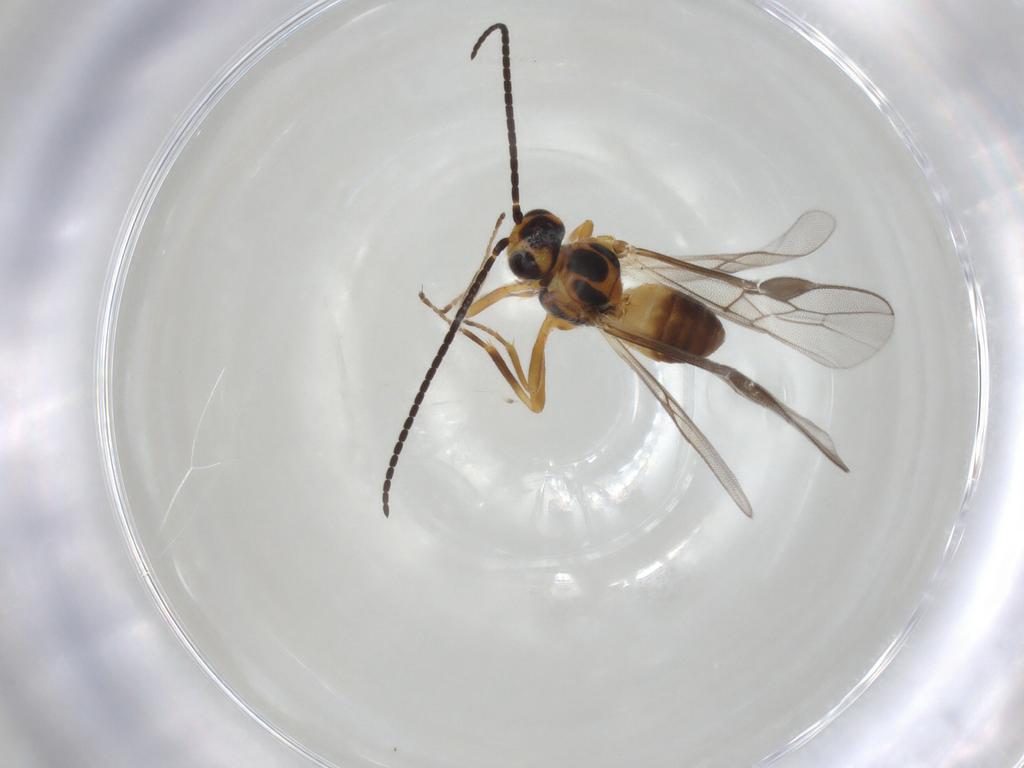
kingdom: Animalia
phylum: Arthropoda
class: Insecta
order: Hymenoptera
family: Braconidae
